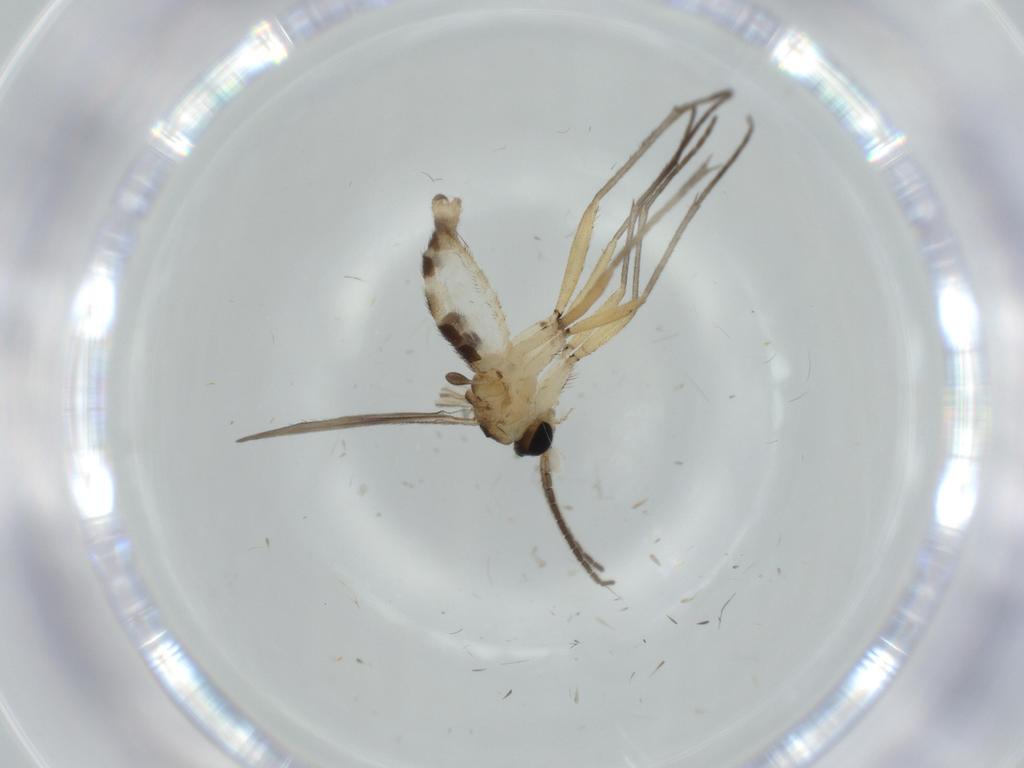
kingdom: Animalia
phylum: Arthropoda
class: Insecta
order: Diptera
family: Sciaridae
